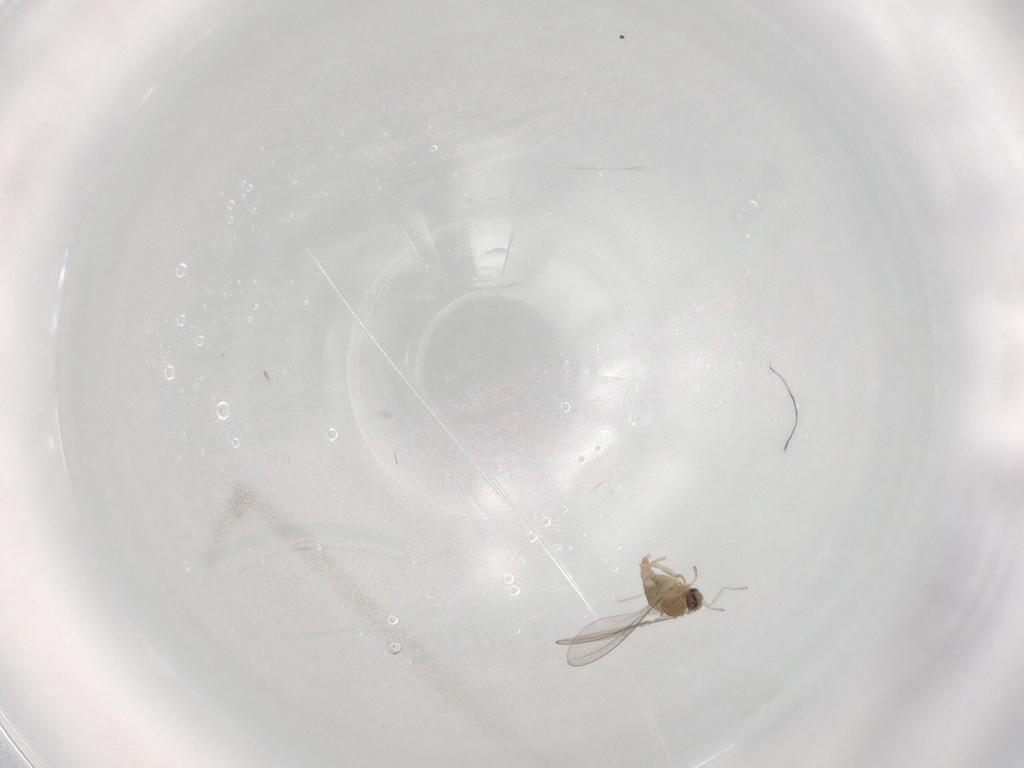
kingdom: Animalia
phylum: Arthropoda
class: Insecta
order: Diptera
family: Cecidomyiidae
